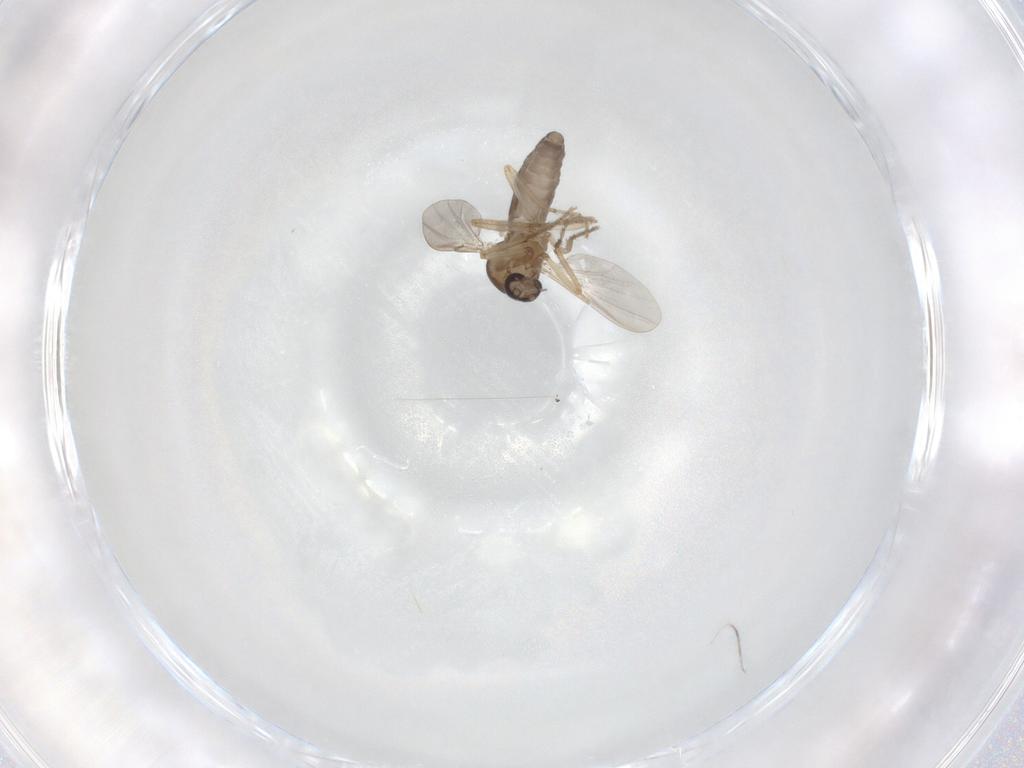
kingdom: Animalia
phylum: Arthropoda
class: Insecta
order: Diptera
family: Ceratopogonidae
